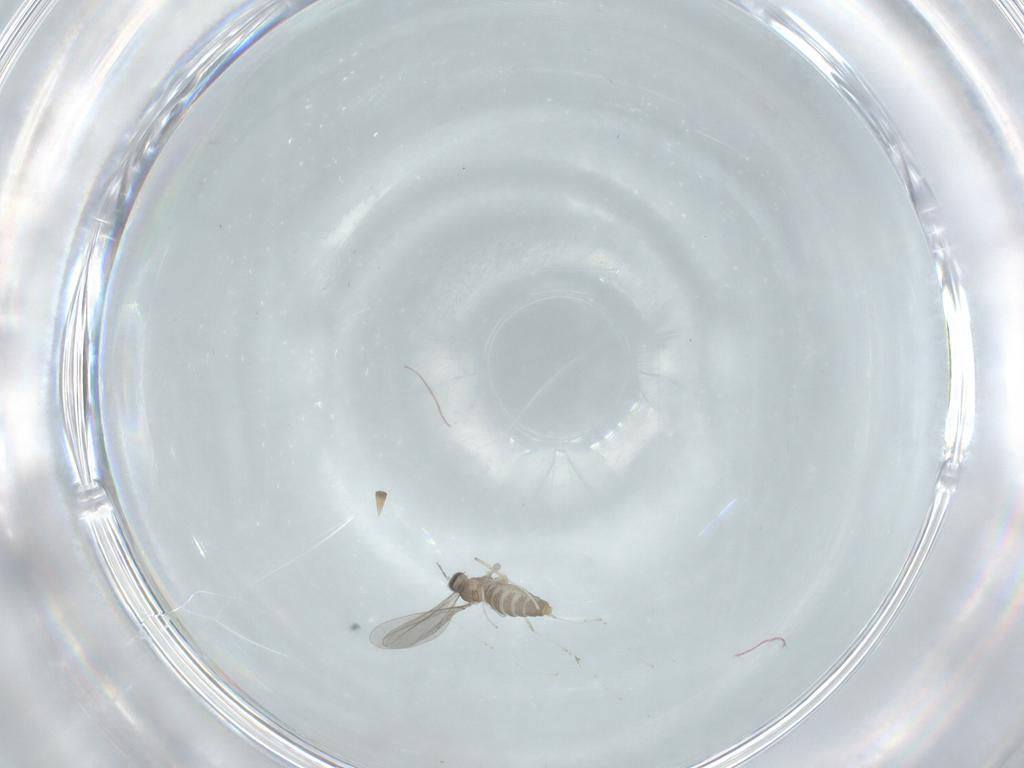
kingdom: Animalia
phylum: Arthropoda
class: Insecta
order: Diptera
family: Cecidomyiidae
